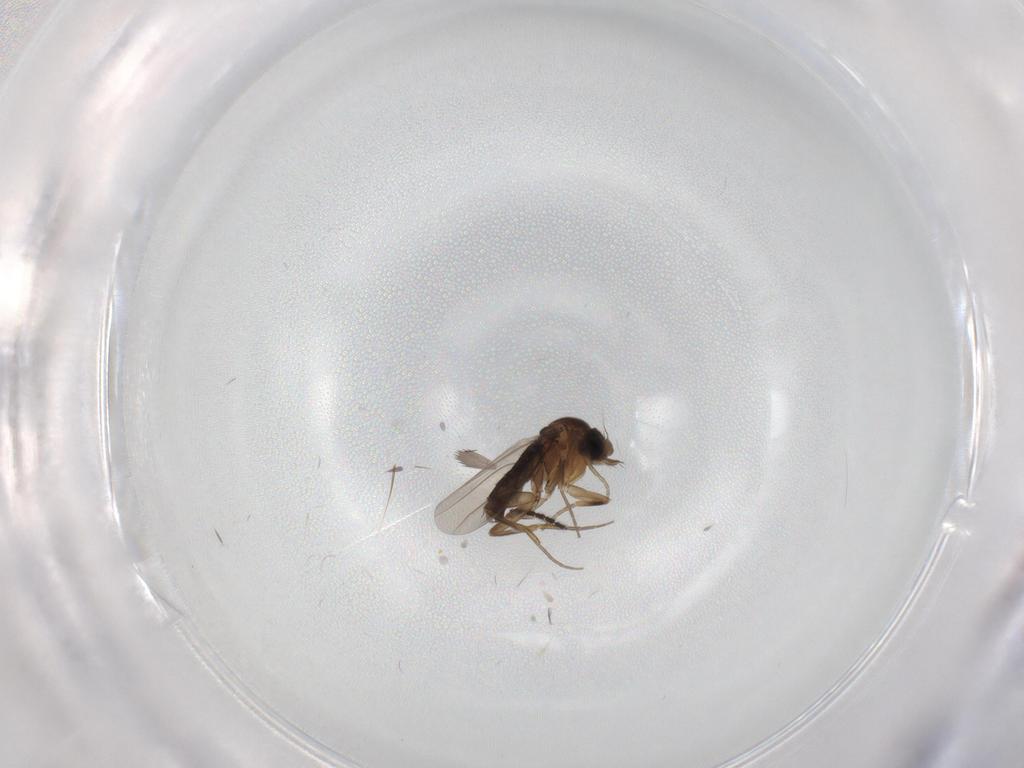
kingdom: Animalia
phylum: Arthropoda
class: Insecta
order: Diptera
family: Phoridae
